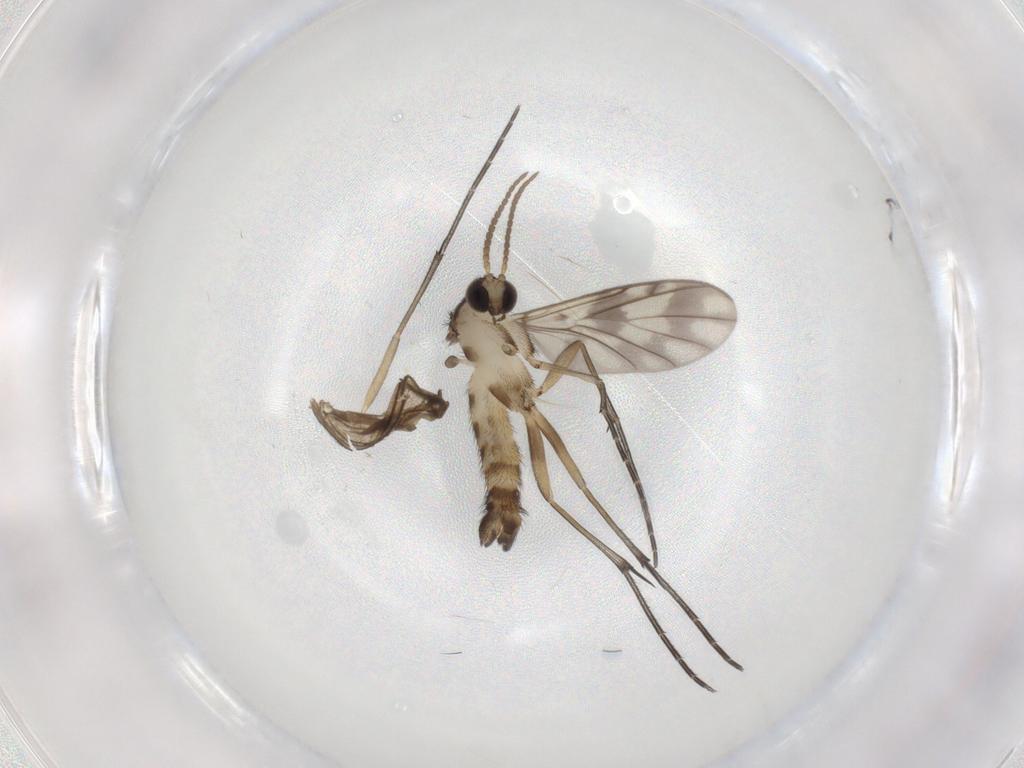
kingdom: Animalia
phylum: Arthropoda
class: Insecta
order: Diptera
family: Keroplatidae
